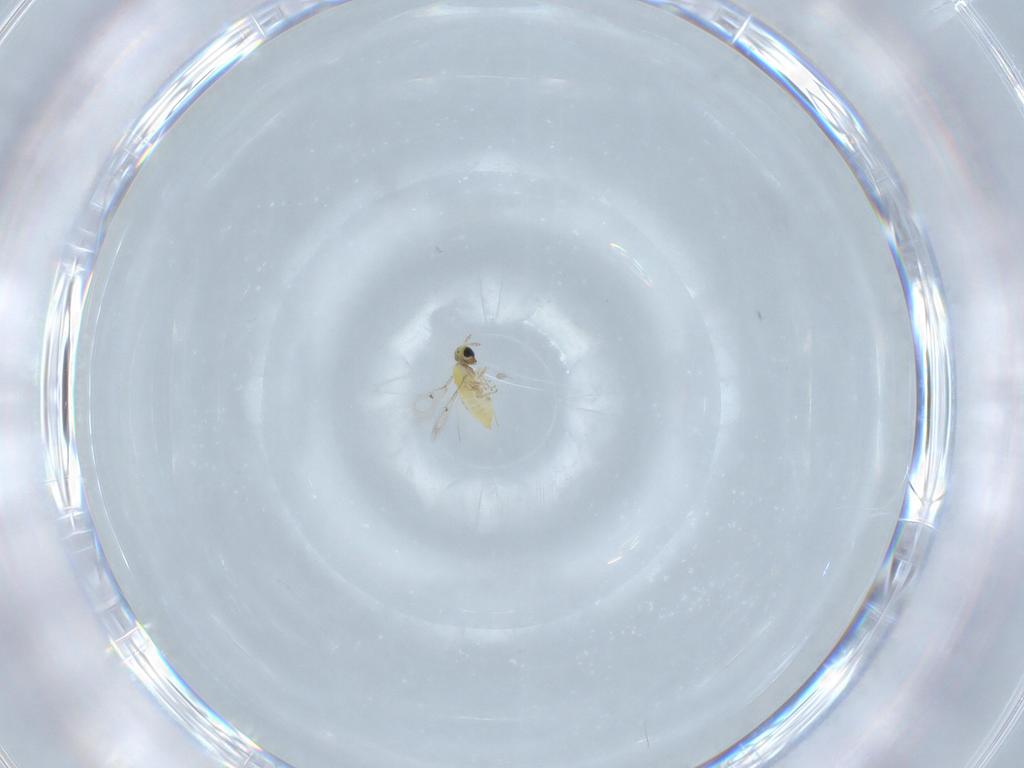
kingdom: Animalia
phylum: Arthropoda
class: Insecta
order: Hymenoptera
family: Trichogrammatidae
